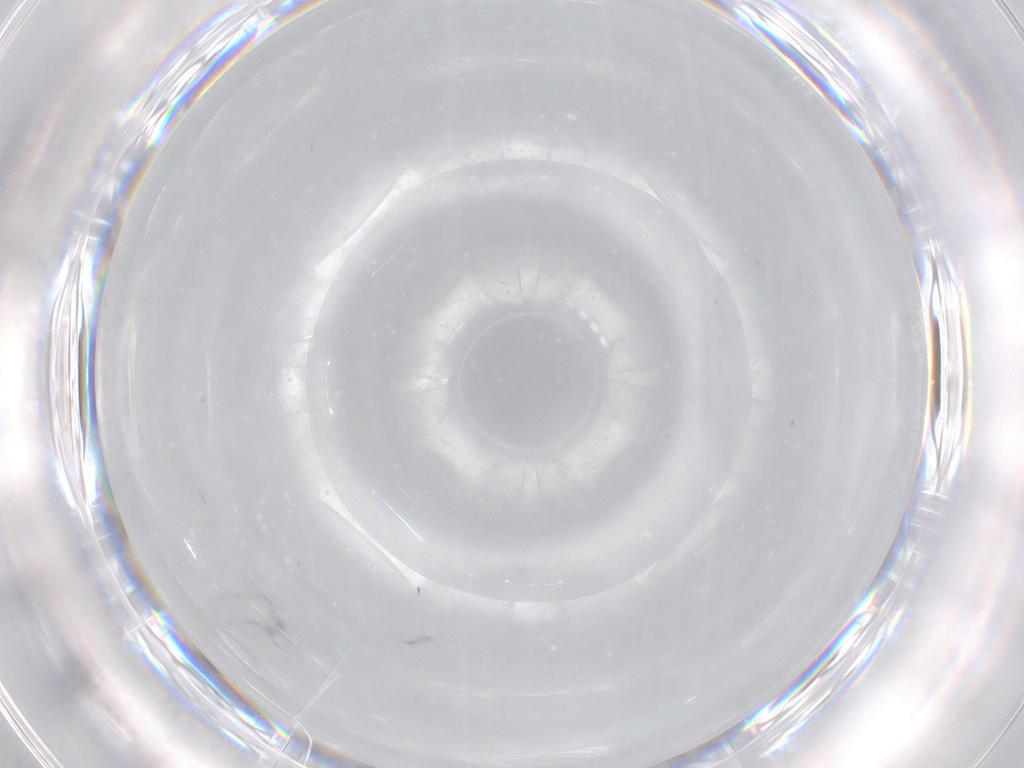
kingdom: Animalia
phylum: Arthropoda
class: Insecta
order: Diptera
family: Ceratopogonidae
